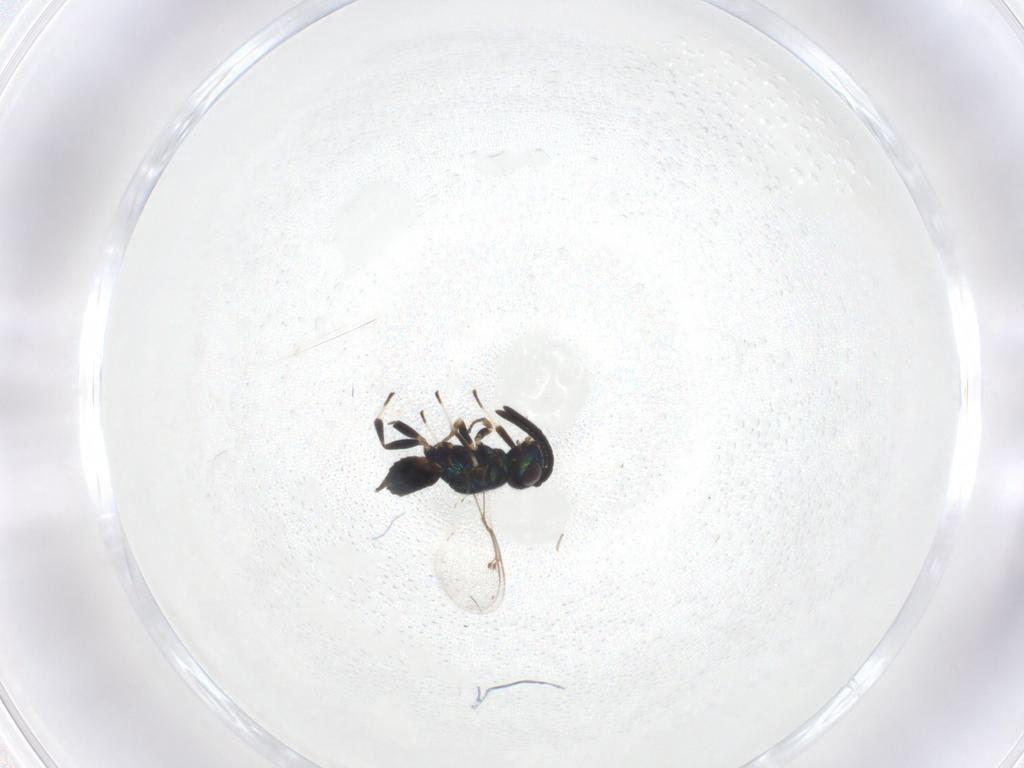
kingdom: Animalia
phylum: Arthropoda
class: Insecta
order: Hymenoptera
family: Eupelmidae
